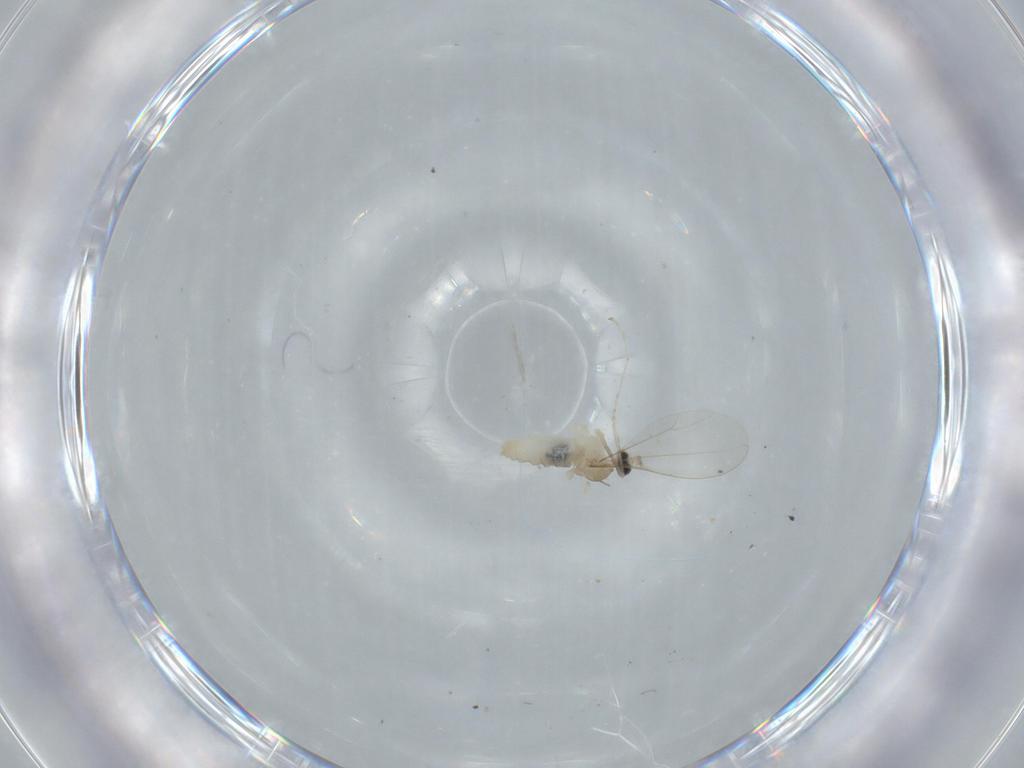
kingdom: Animalia
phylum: Arthropoda
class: Insecta
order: Diptera
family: Cecidomyiidae
